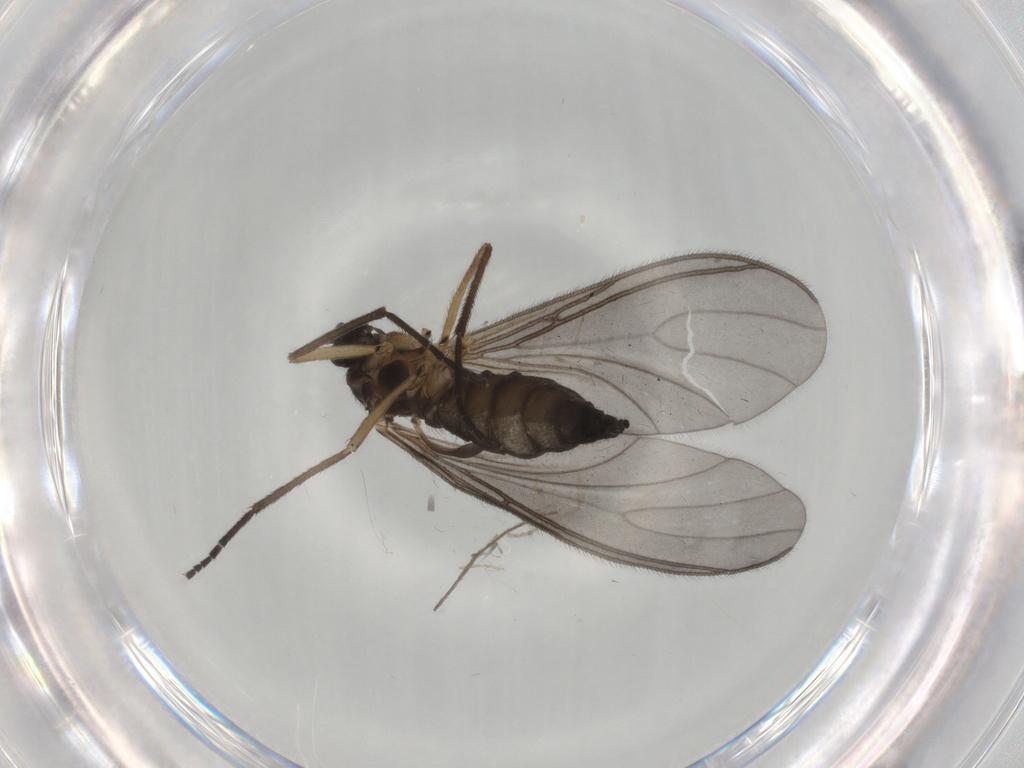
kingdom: Animalia
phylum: Arthropoda
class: Insecta
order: Diptera
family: Sciaridae
